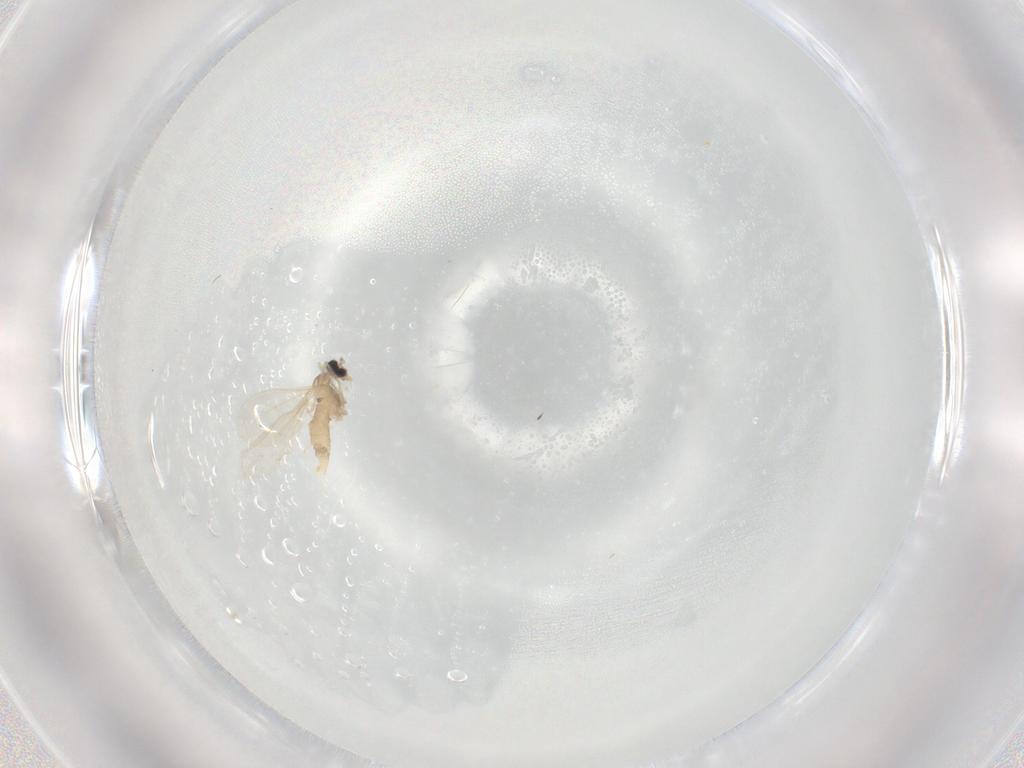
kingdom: Animalia
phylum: Arthropoda
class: Insecta
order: Diptera
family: Cecidomyiidae
